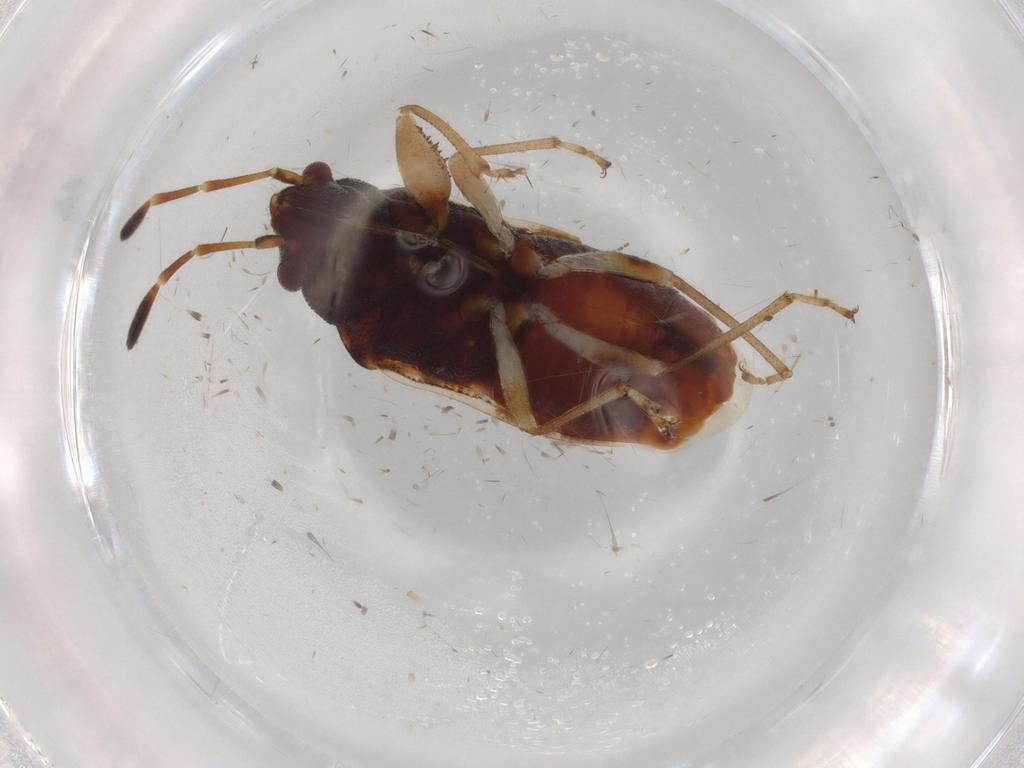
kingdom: Animalia
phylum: Arthropoda
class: Insecta
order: Hemiptera
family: Rhyparochromidae
